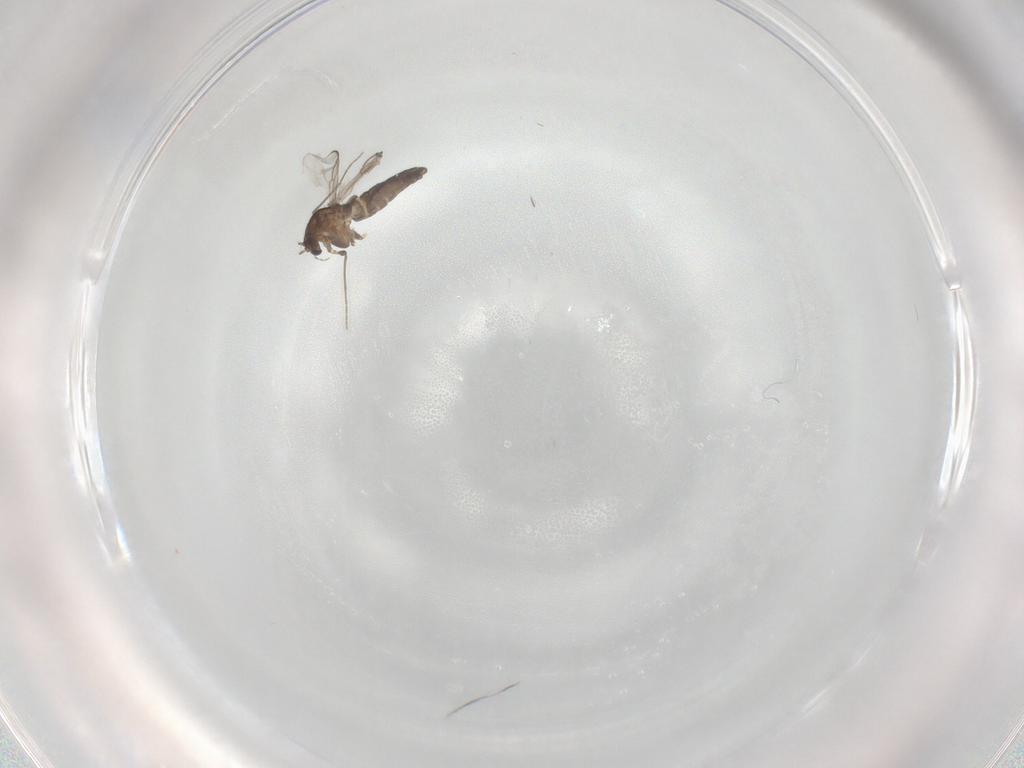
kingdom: Animalia
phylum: Arthropoda
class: Insecta
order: Diptera
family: Chironomidae
